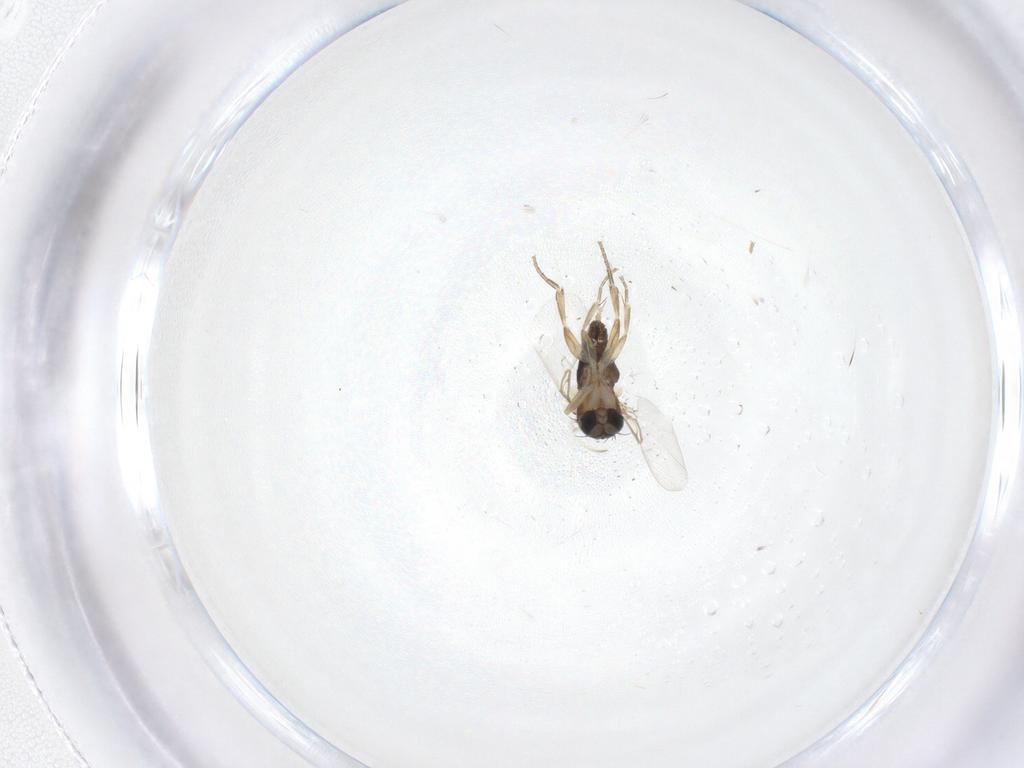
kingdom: Animalia
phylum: Arthropoda
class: Insecta
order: Diptera
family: Phoridae
